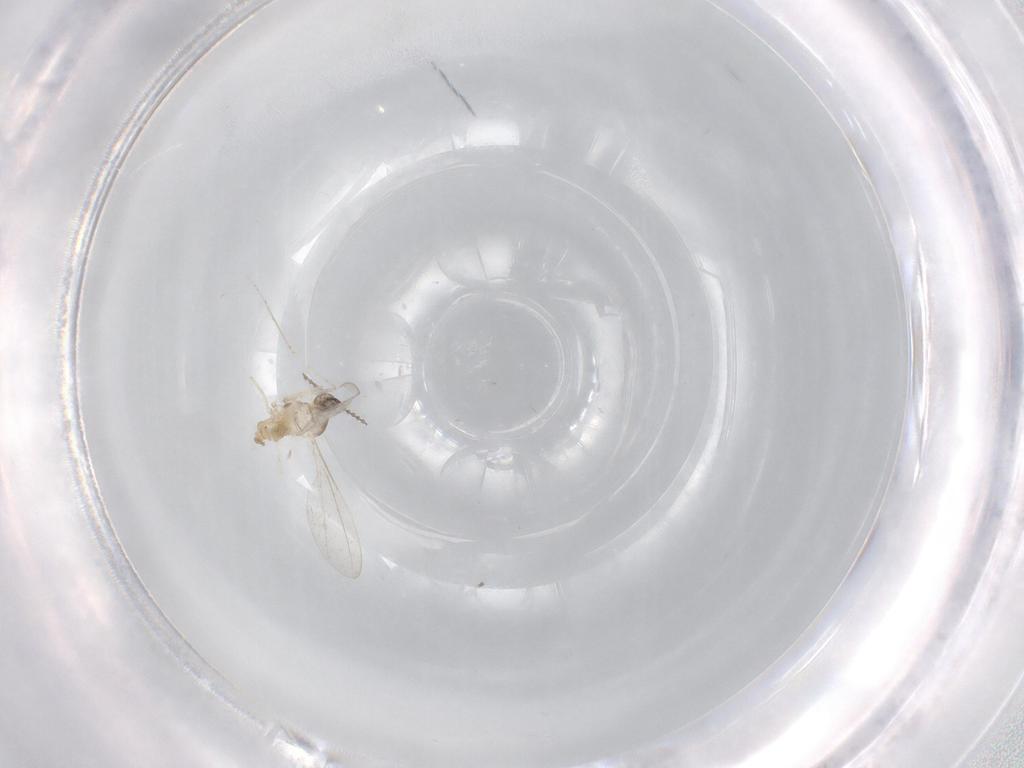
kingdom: Animalia
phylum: Arthropoda
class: Insecta
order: Diptera
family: Cecidomyiidae
